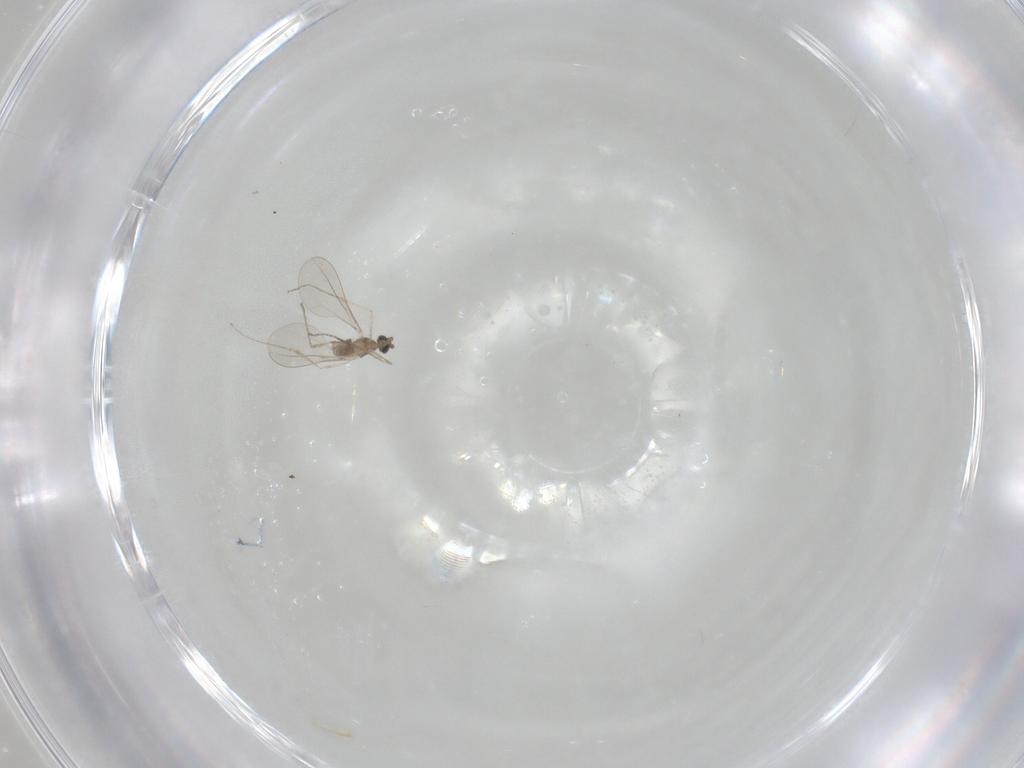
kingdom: Animalia
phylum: Arthropoda
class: Insecta
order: Diptera
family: Cecidomyiidae
